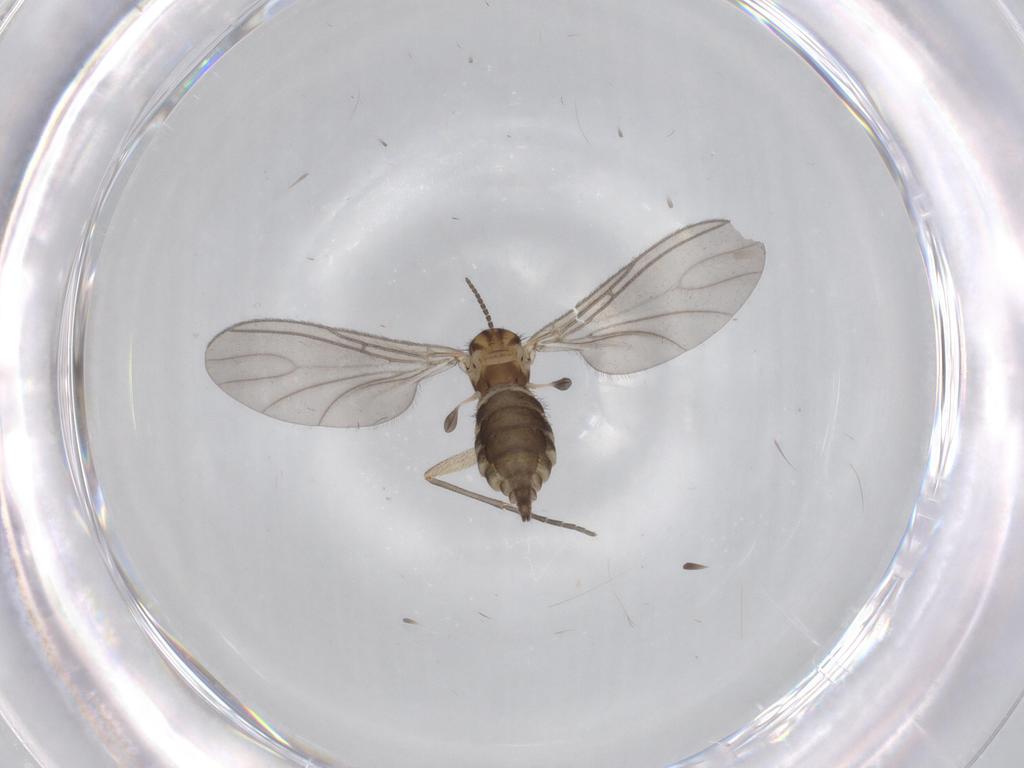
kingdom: Animalia
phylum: Arthropoda
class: Insecta
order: Diptera
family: Sciaridae
